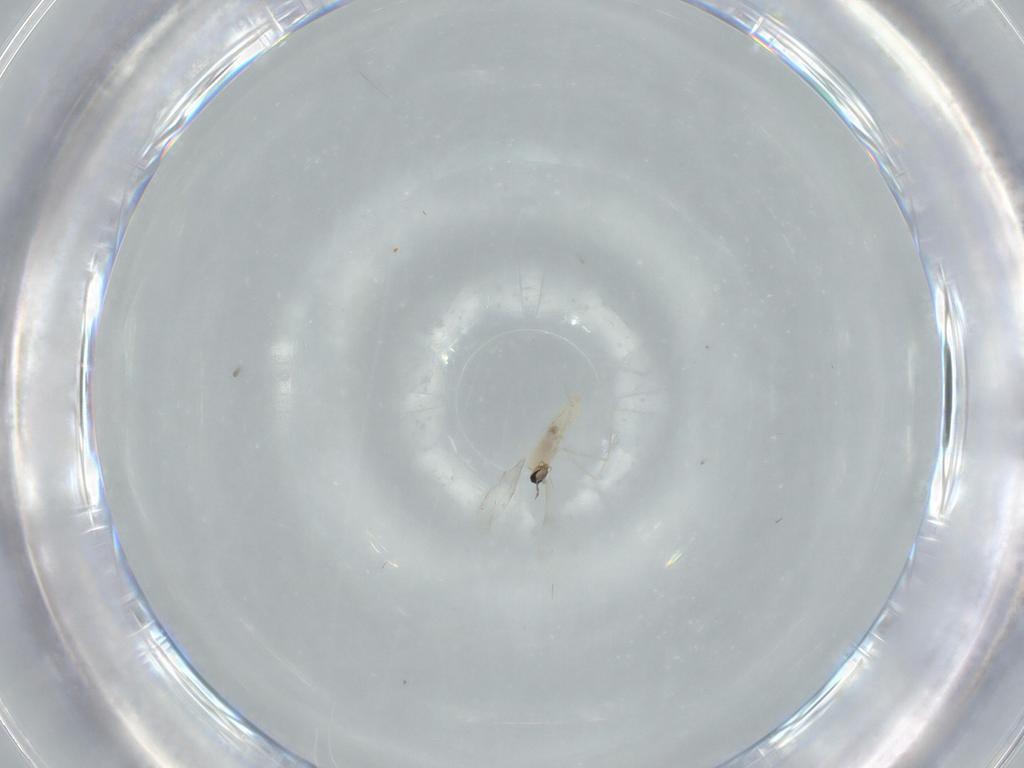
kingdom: Animalia
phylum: Arthropoda
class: Insecta
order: Diptera
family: Cecidomyiidae
